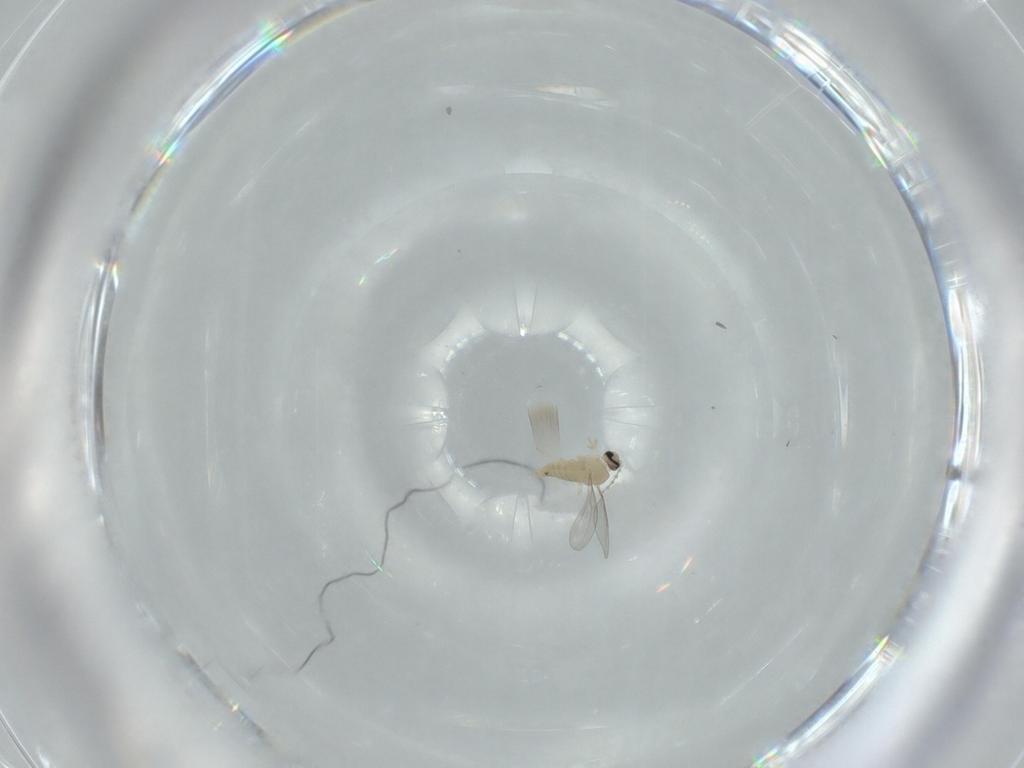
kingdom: Animalia
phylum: Arthropoda
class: Insecta
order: Diptera
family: Cecidomyiidae
